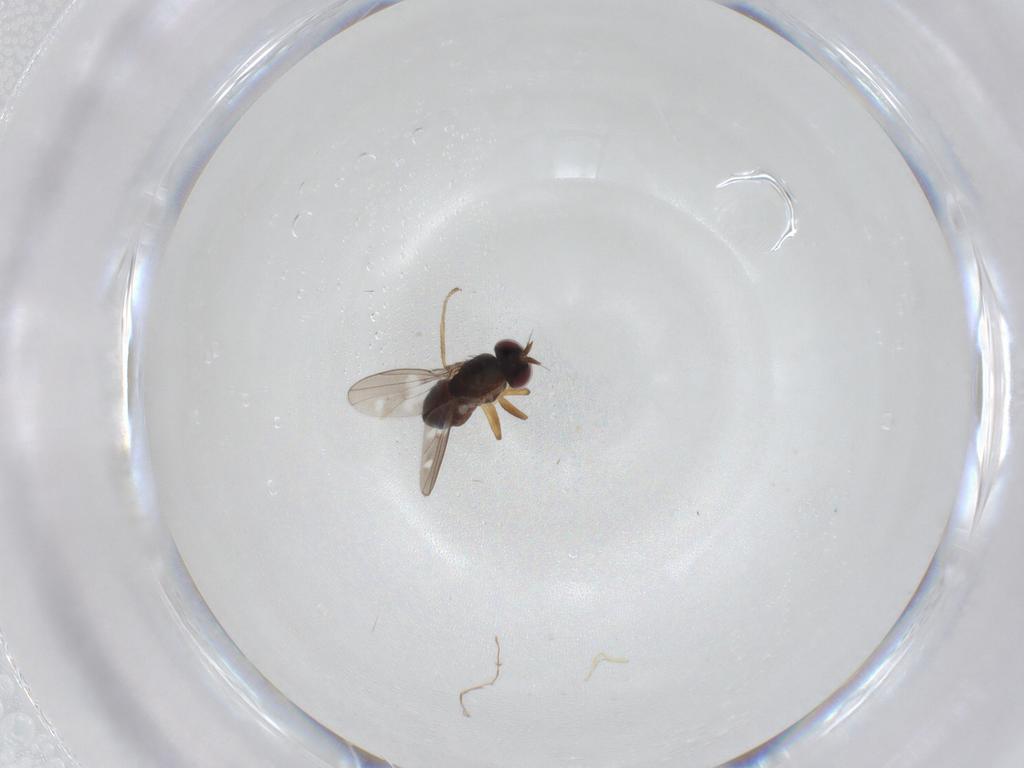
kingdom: Animalia
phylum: Arthropoda
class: Insecta
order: Diptera
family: Ephydridae
